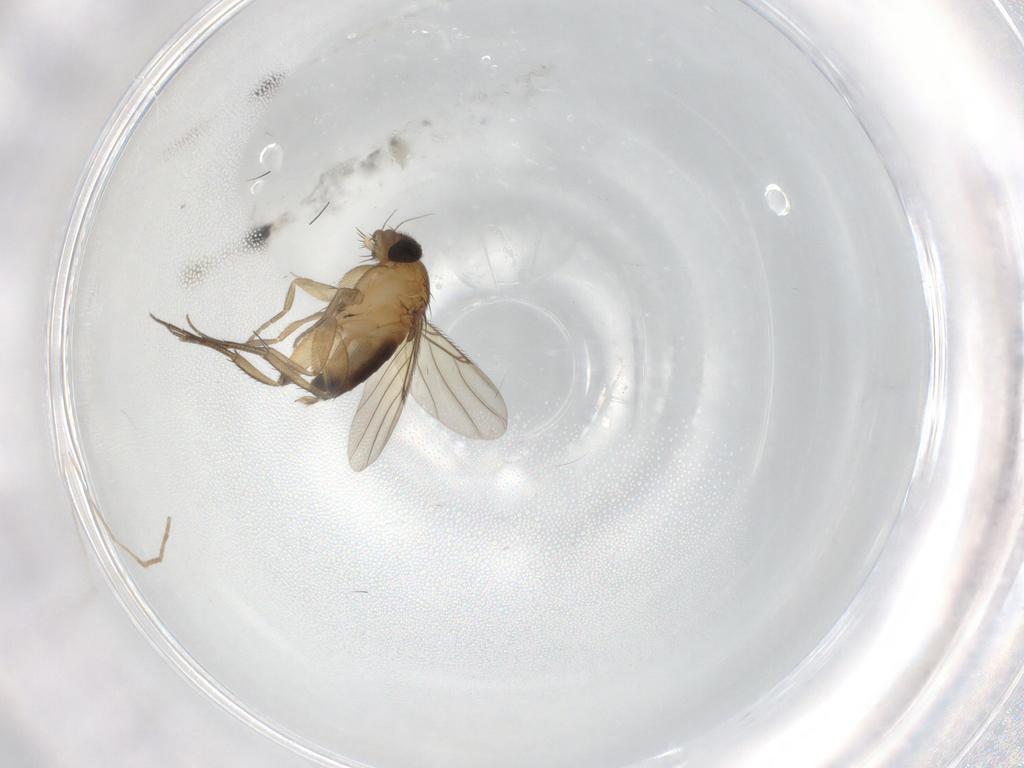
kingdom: Animalia
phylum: Arthropoda
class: Insecta
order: Diptera
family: Phoridae
